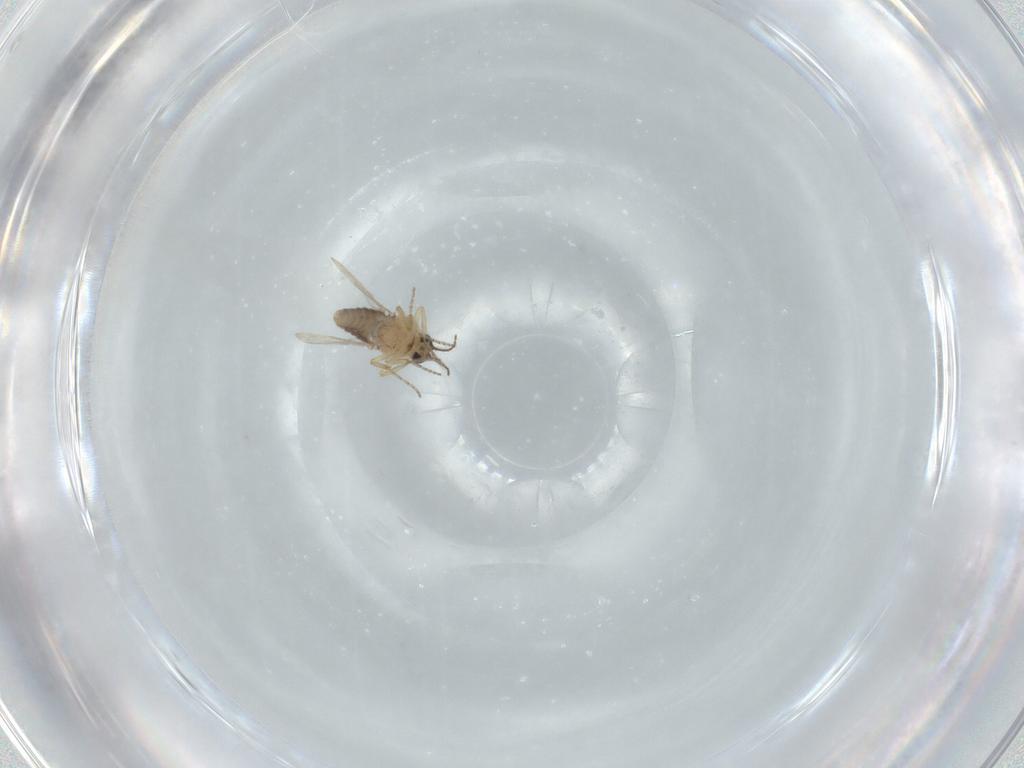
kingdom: Animalia
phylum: Arthropoda
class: Insecta
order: Diptera
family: Ceratopogonidae
